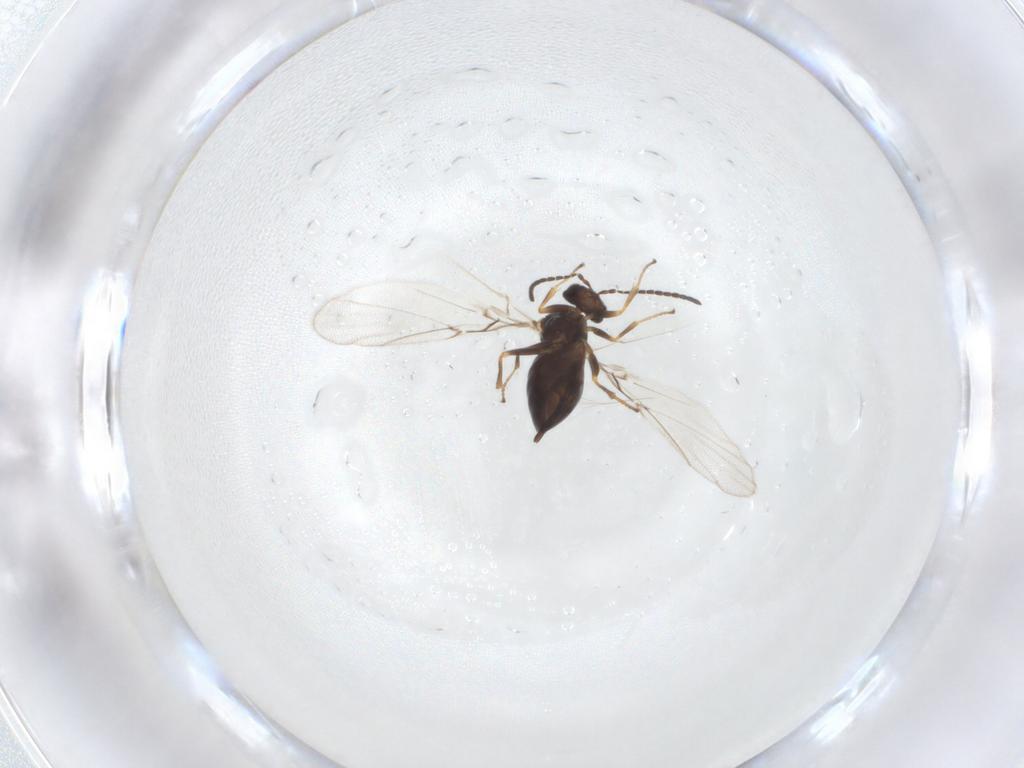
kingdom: Animalia
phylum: Arthropoda
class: Insecta
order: Hymenoptera
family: Cynipidae
